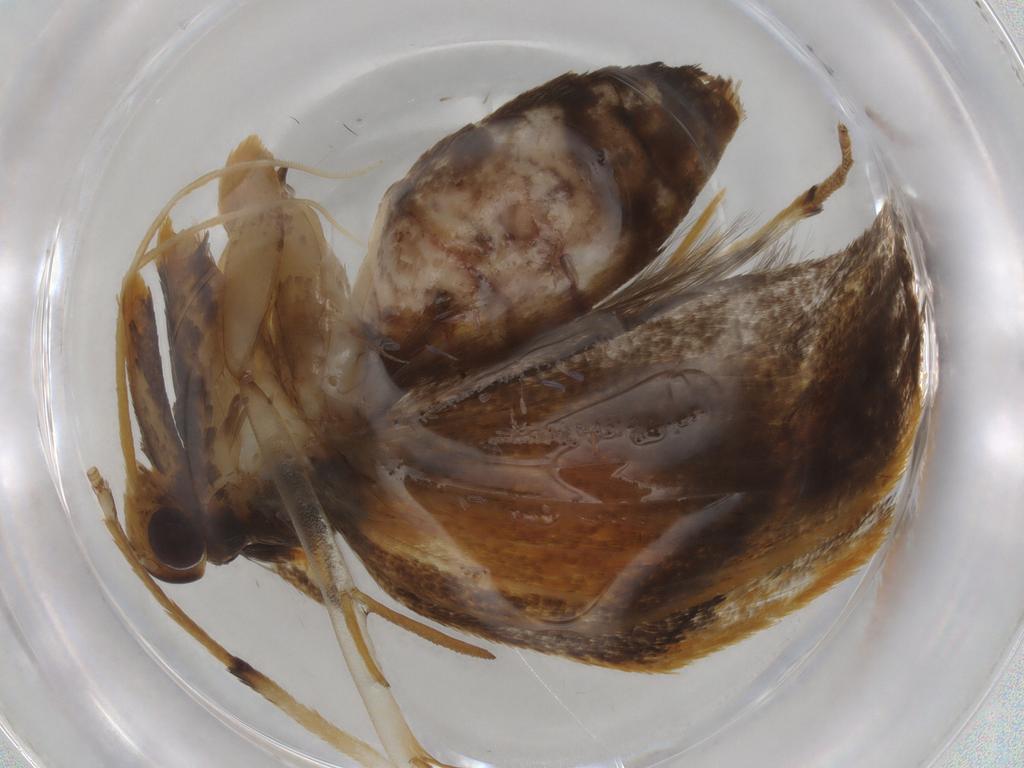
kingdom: Animalia
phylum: Arthropoda
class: Insecta
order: Lepidoptera
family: Lecithoceridae
